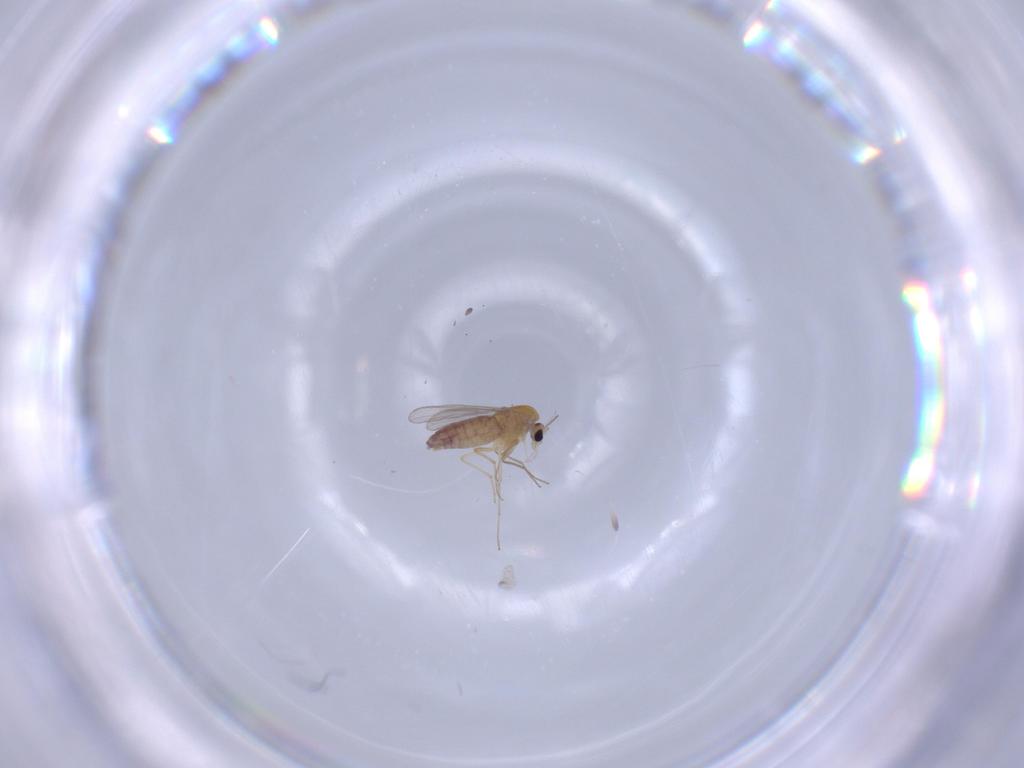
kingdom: Animalia
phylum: Arthropoda
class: Insecta
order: Diptera
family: Chironomidae
